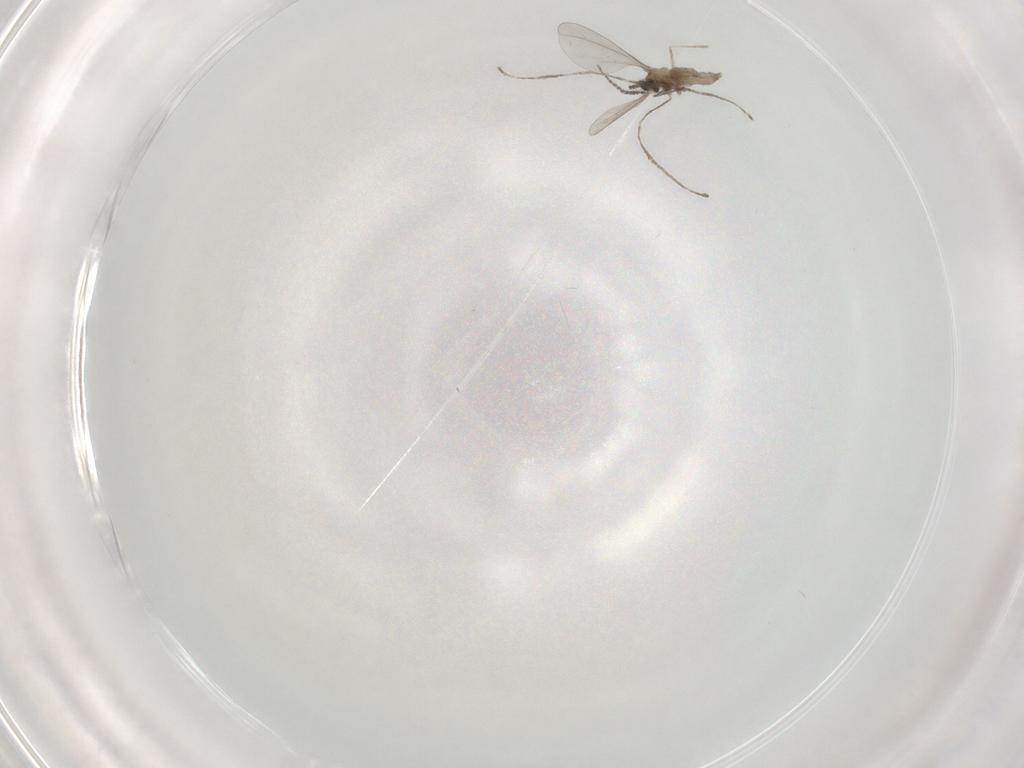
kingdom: Animalia
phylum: Arthropoda
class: Insecta
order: Diptera
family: Cecidomyiidae
